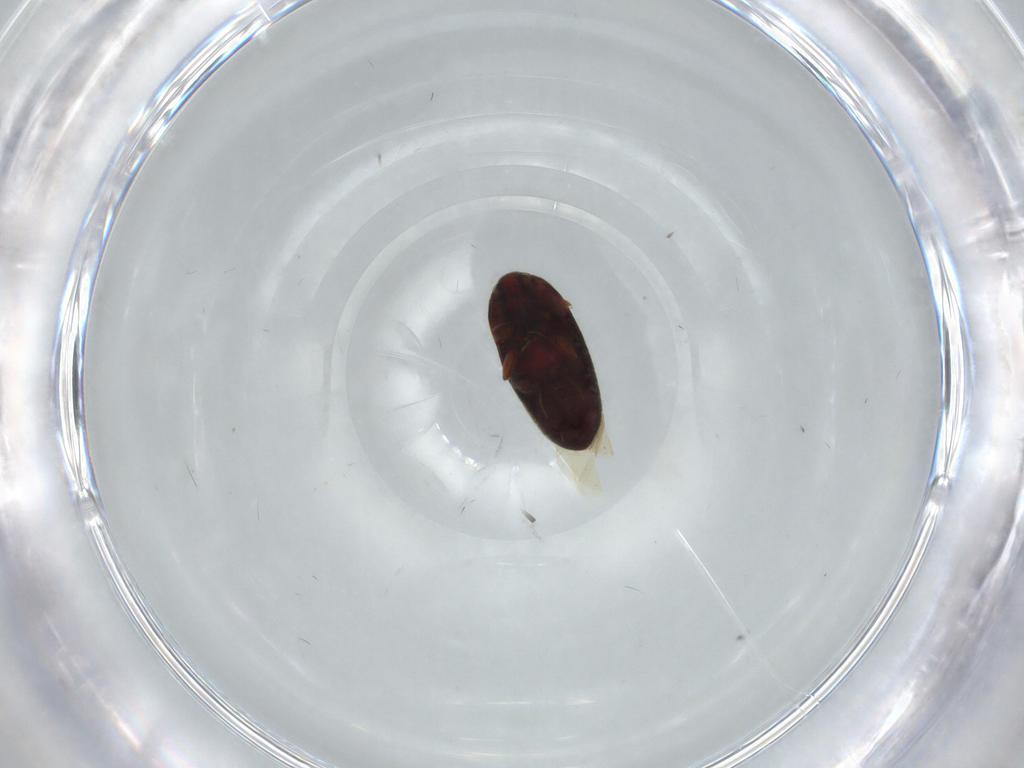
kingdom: Animalia
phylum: Arthropoda
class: Insecta
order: Coleoptera
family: Throscidae
